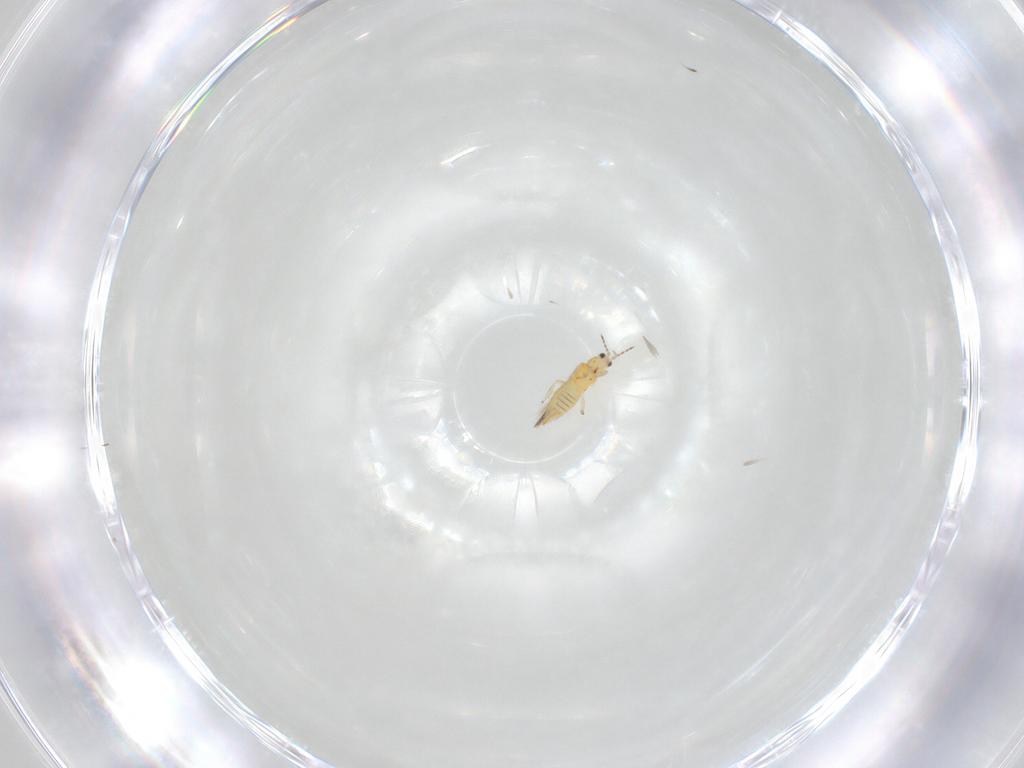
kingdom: Animalia
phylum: Arthropoda
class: Insecta
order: Thysanoptera
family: Thripidae
